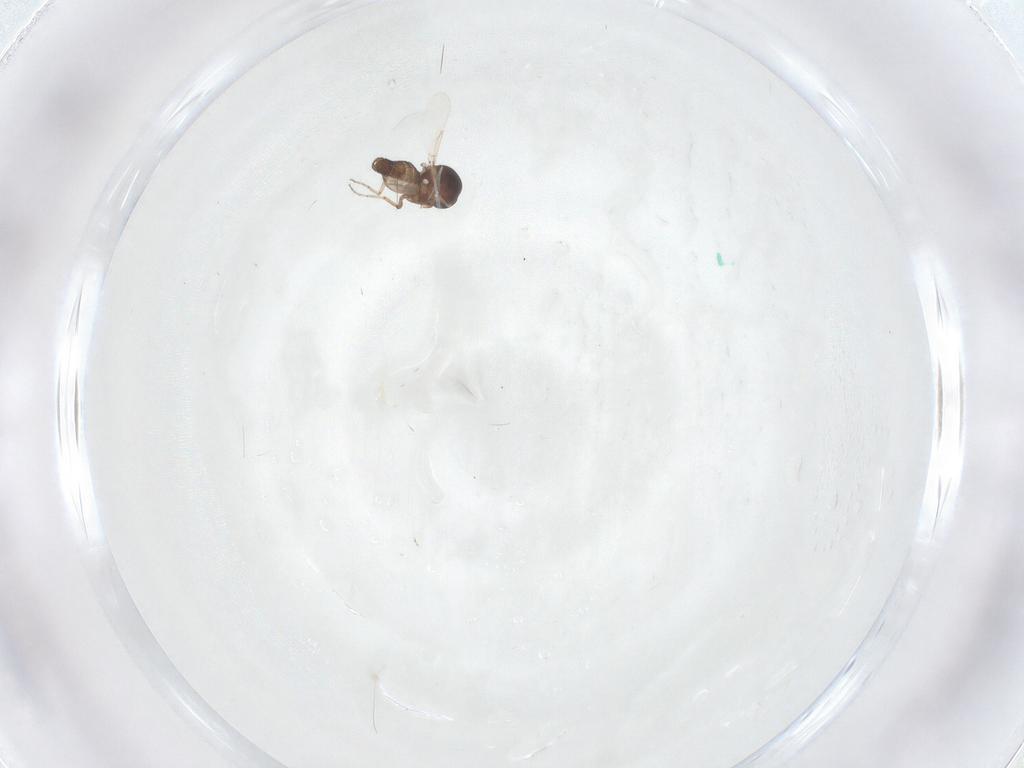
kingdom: Animalia
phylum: Arthropoda
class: Insecta
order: Diptera
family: Ceratopogonidae
